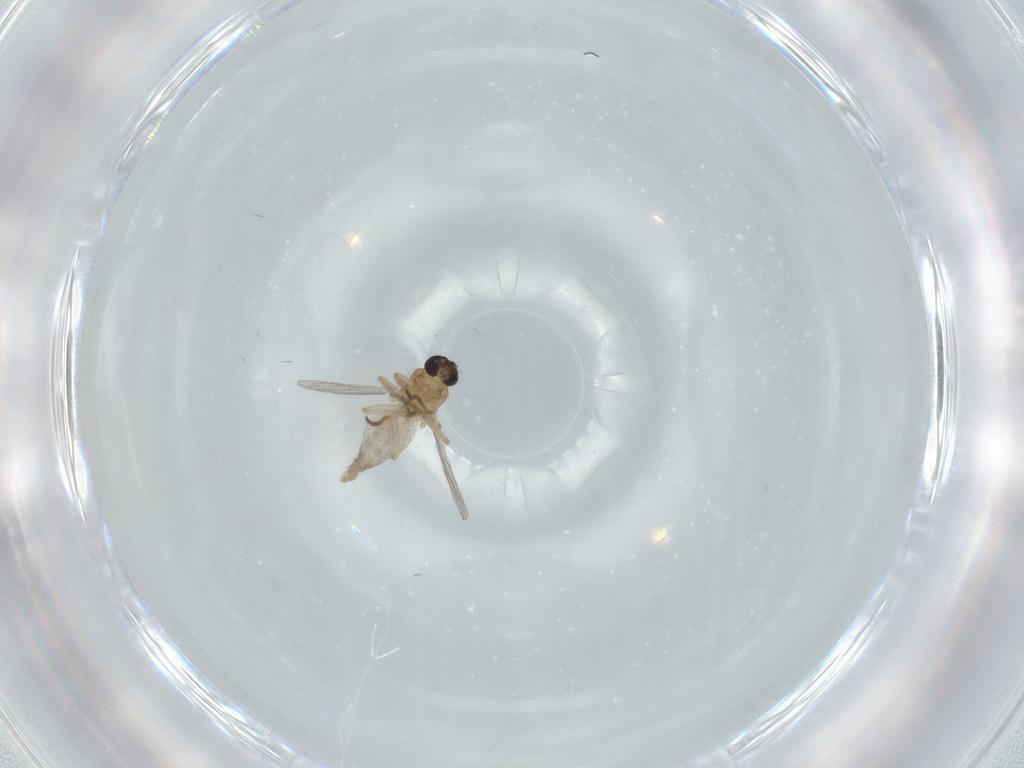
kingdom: Animalia
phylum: Arthropoda
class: Insecta
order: Diptera
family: Ceratopogonidae
